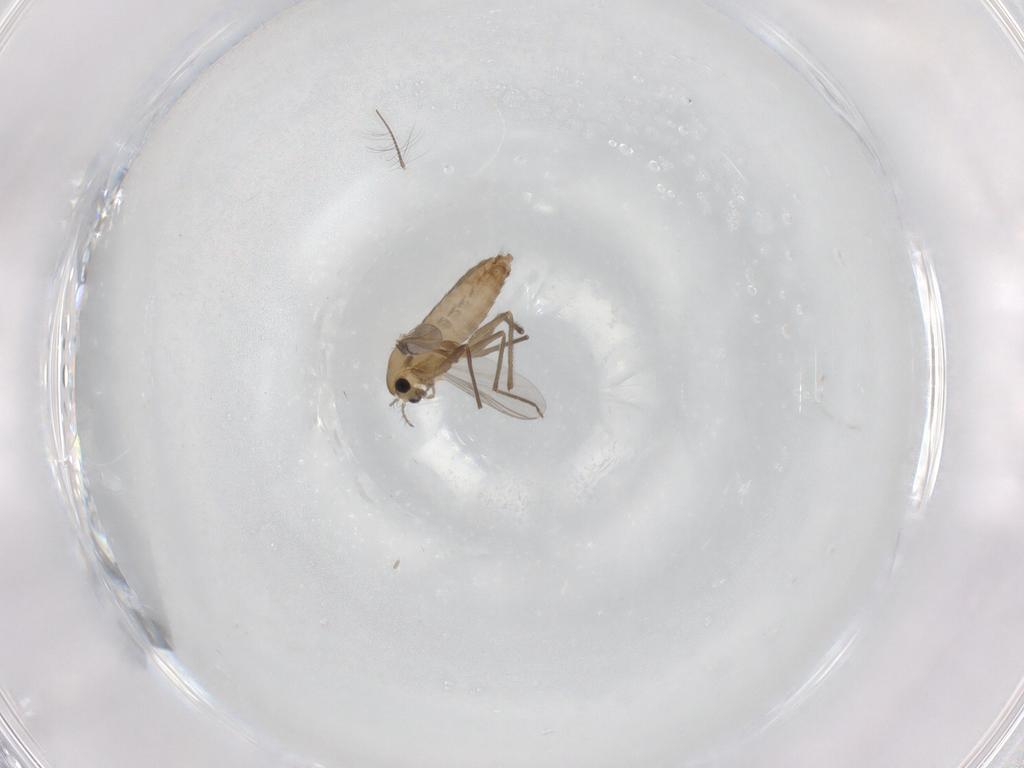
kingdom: Animalia
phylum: Arthropoda
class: Insecta
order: Diptera
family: Chironomidae
